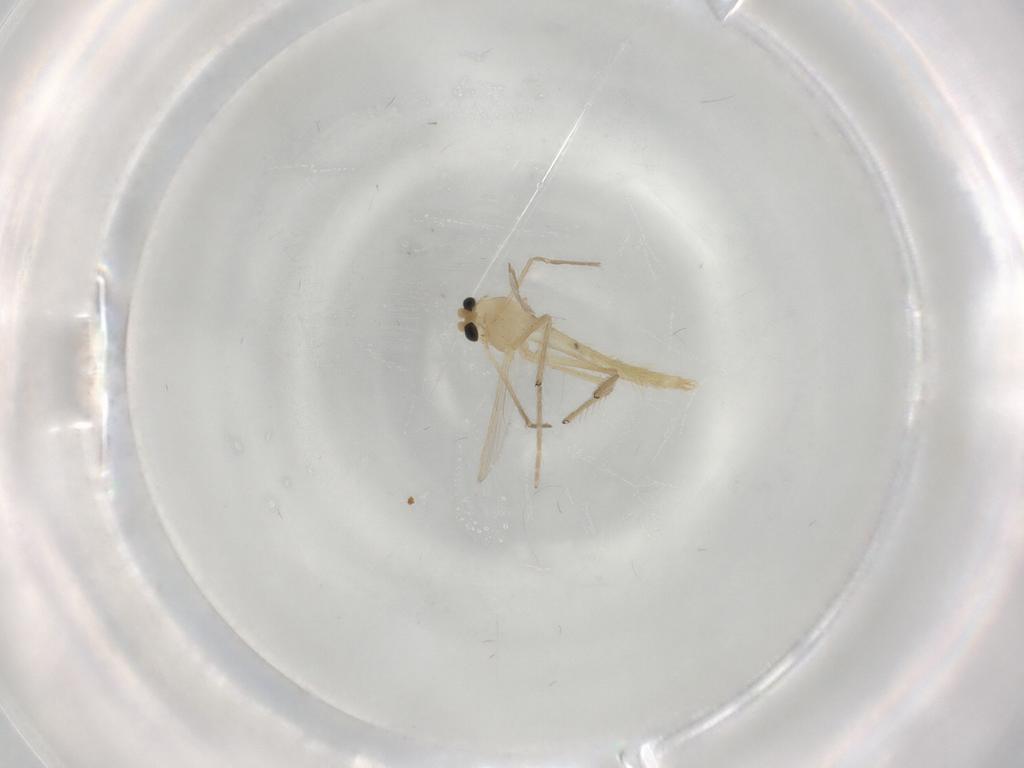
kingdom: Animalia
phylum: Arthropoda
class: Insecta
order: Diptera
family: Chironomidae
